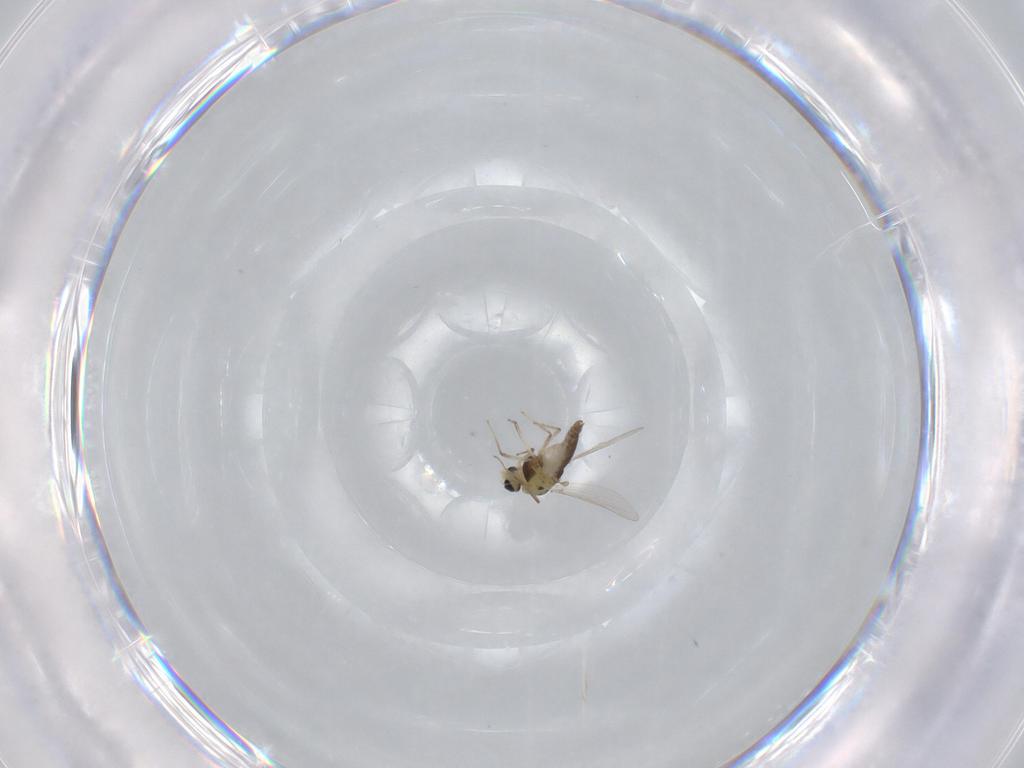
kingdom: Animalia
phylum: Arthropoda
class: Insecta
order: Diptera
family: Chironomidae
